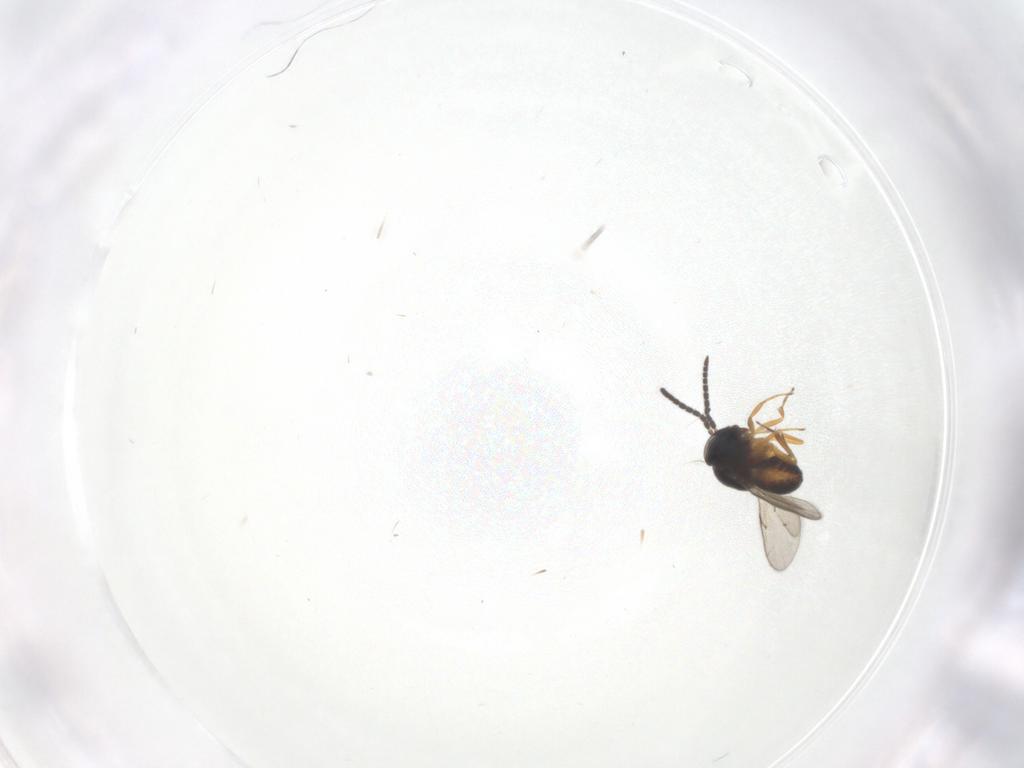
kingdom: Animalia
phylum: Arthropoda
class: Insecta
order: Hymenoptera
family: Scelionidae
